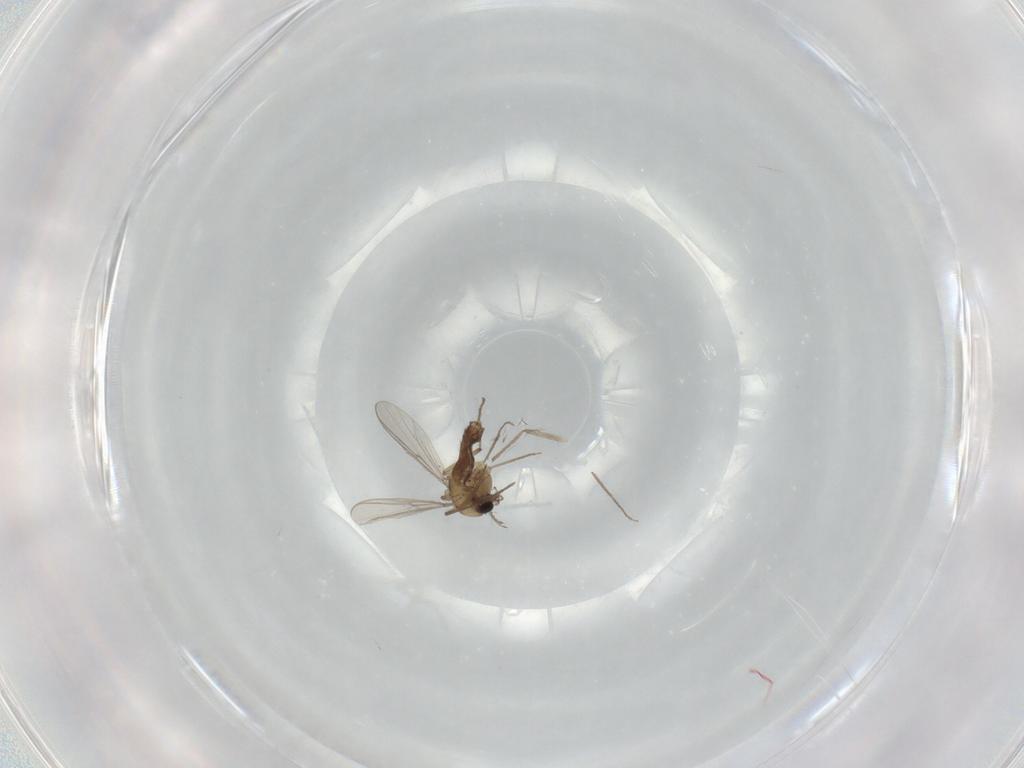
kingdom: Animalia
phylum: Arthropoda
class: Insecta
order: Diptera
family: Chironomidae
